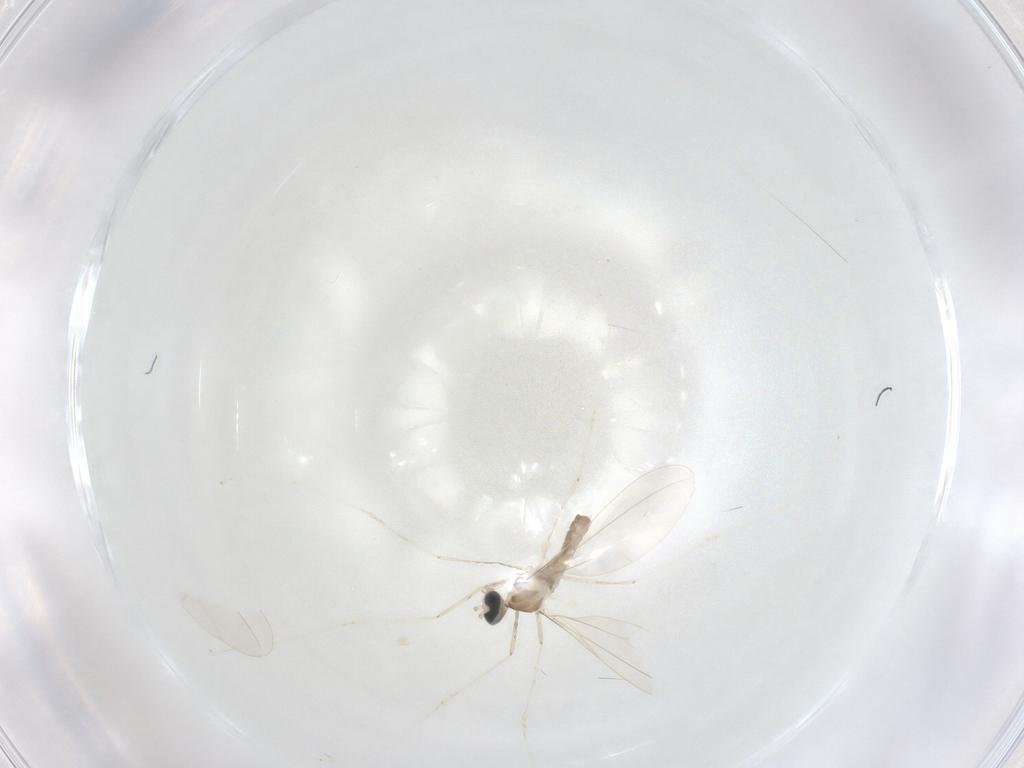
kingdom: Animalia
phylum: Arthropoda
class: Insecta
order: Diptera
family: Cecidomyiidae
